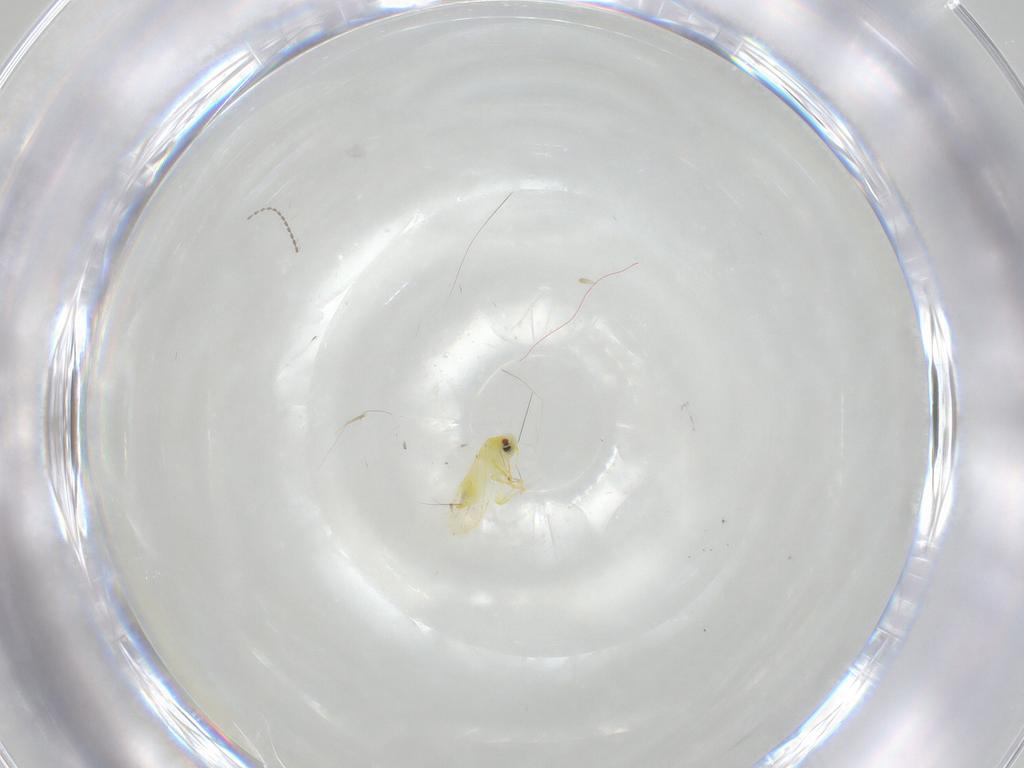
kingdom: Animalia
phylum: Arthropoda
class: Insecta
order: Hemiptera
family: Aleyrodidae
